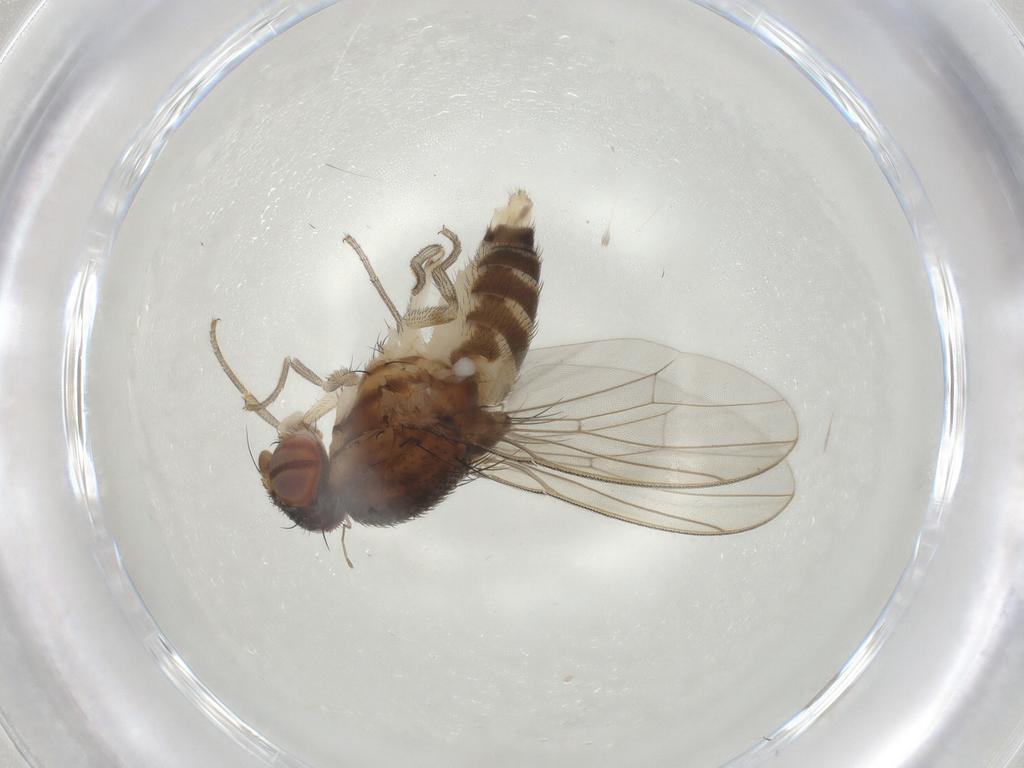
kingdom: Animalia
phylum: Arthropoda
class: Insecta
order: Diptera
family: Drosophilidae
